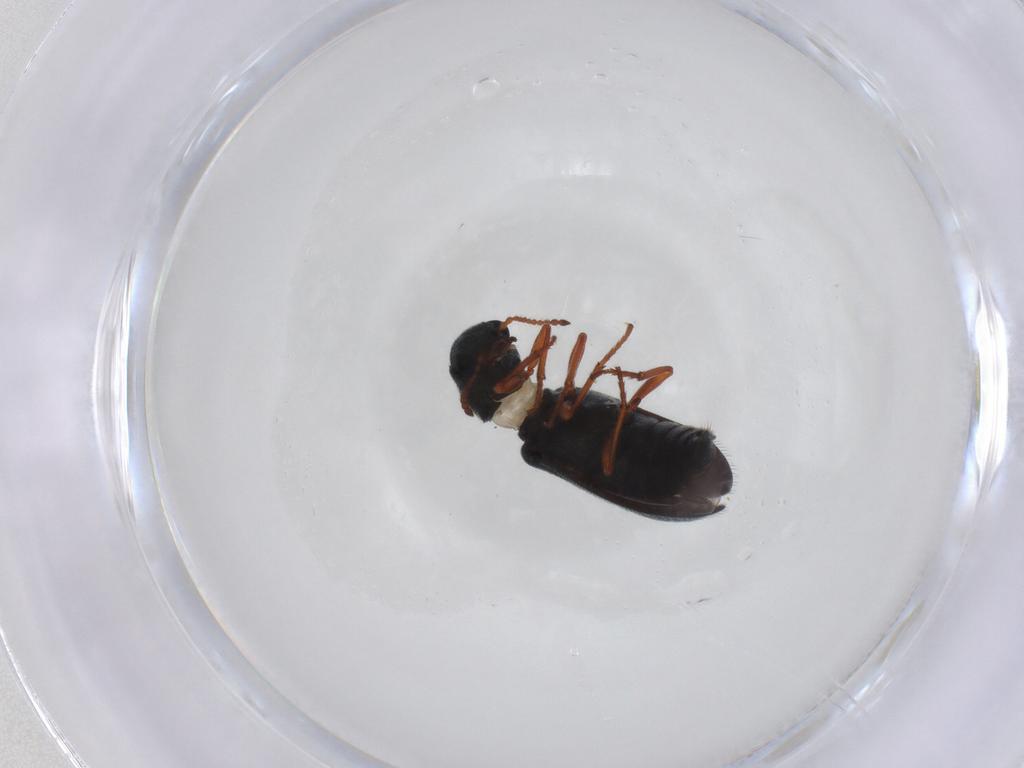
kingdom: Animalia
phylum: Arthropoda
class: Insecta
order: Coleoptera
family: Melyridae
